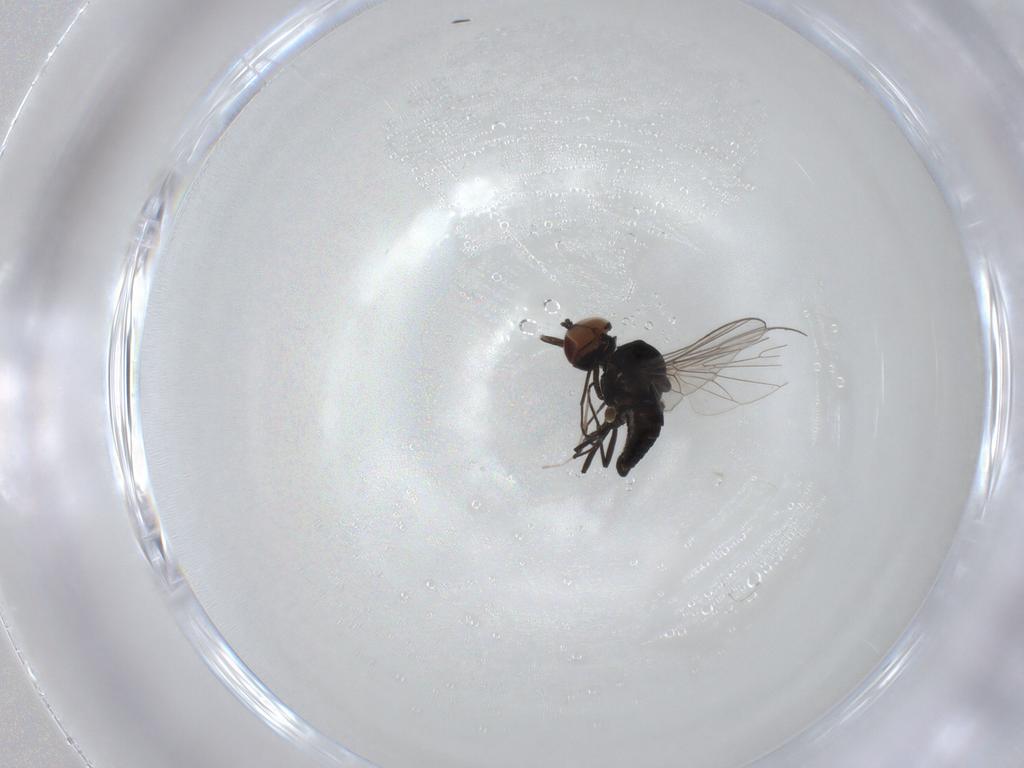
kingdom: Animalia
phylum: Arthropoda
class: Insecta
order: Diptera
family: Bombyliidae
